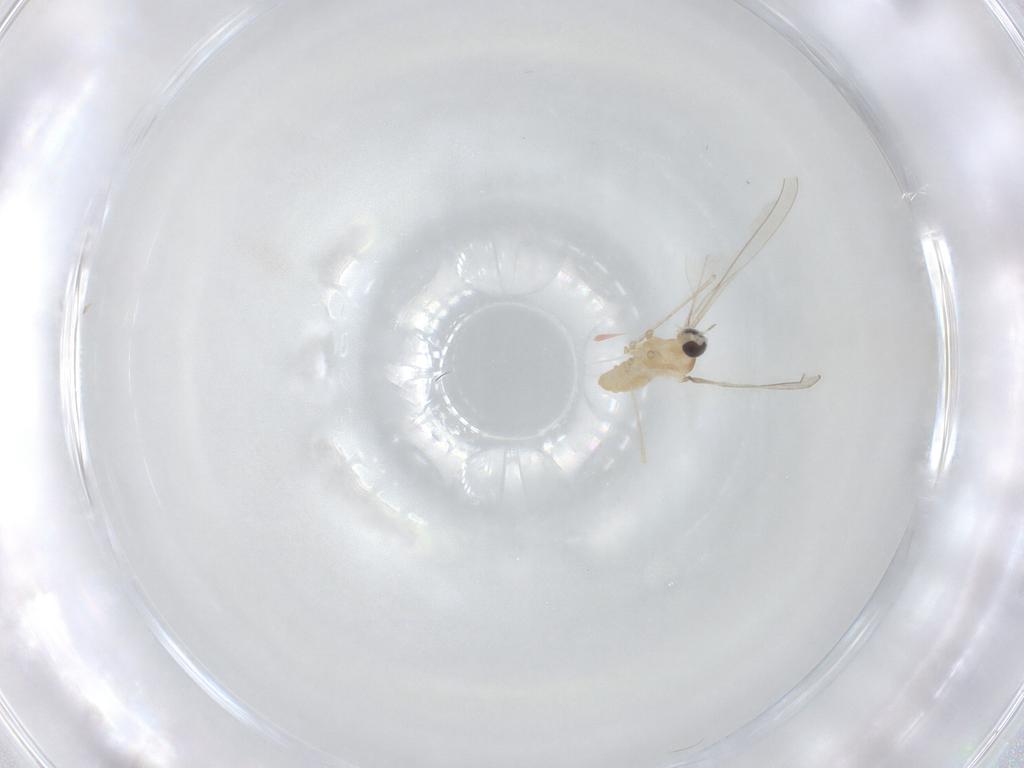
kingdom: Animalia
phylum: Arthropoda
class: Insecta
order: Diptera
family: Cecidomyiidae
